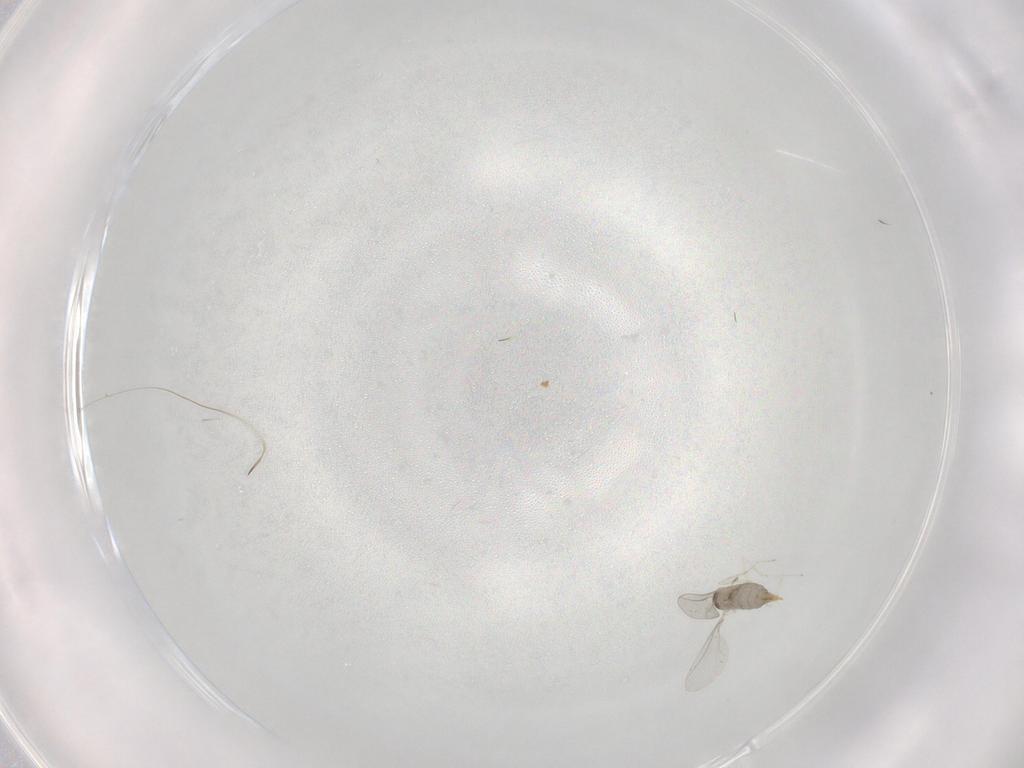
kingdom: Animalia
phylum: Arthropoda
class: Insecta
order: Diptera
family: Cecidomyiidae
